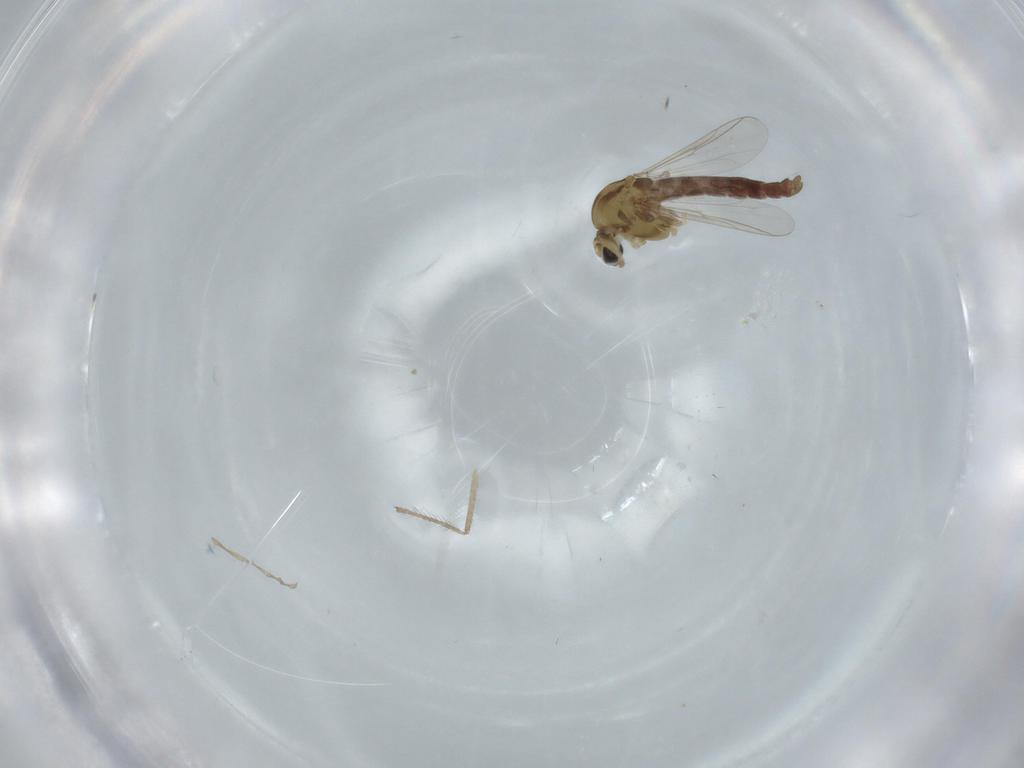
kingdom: Animalia
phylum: Arthropoda
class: Insecta
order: Diptera
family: Chironomidae
